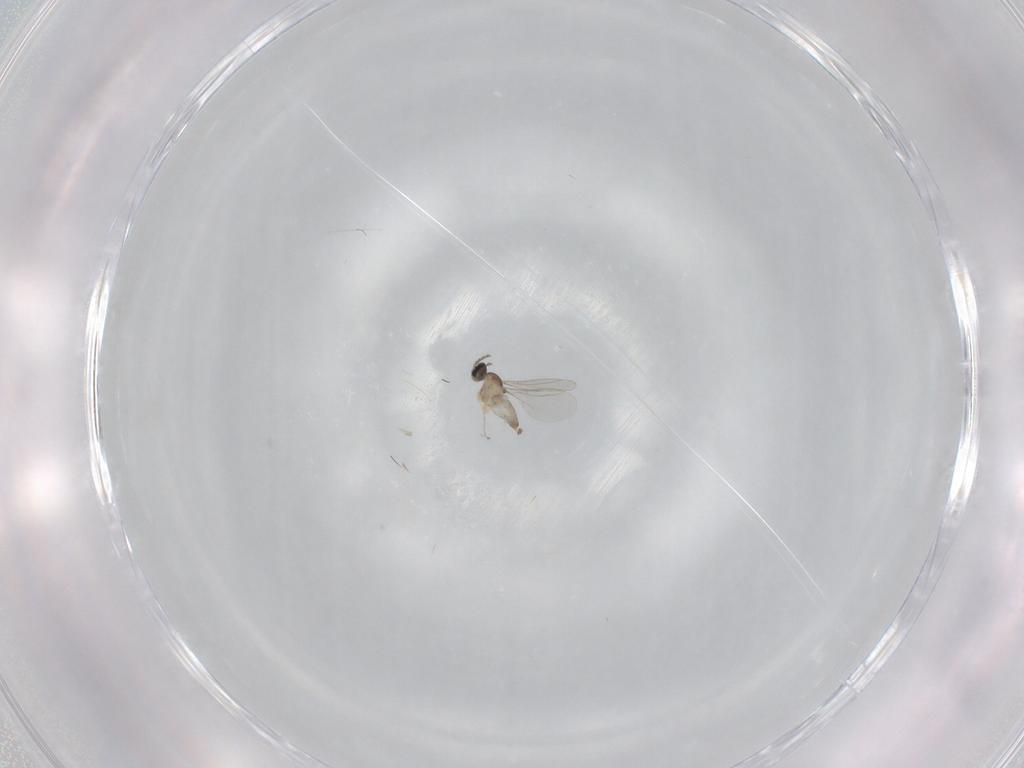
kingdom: Animalia
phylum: Arthropoda
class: Insecta
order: Diptera
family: Cecidomyiidae
